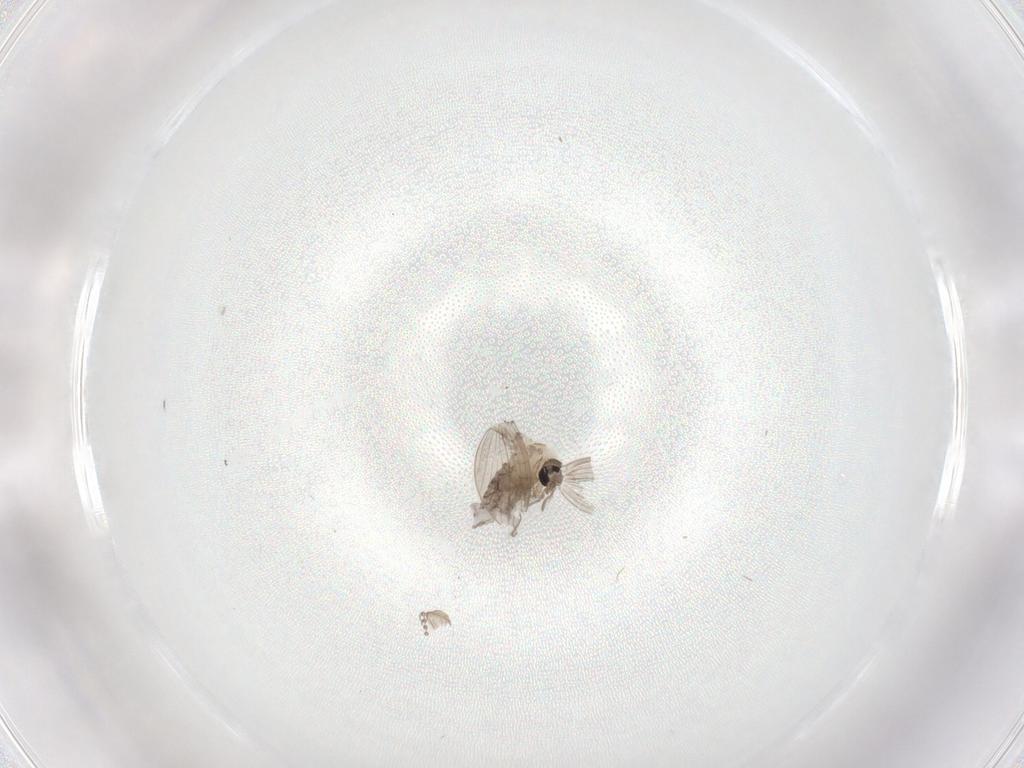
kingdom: Animalia
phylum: Arthropoda
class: Insecta
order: Diptera
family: Psychodidae
